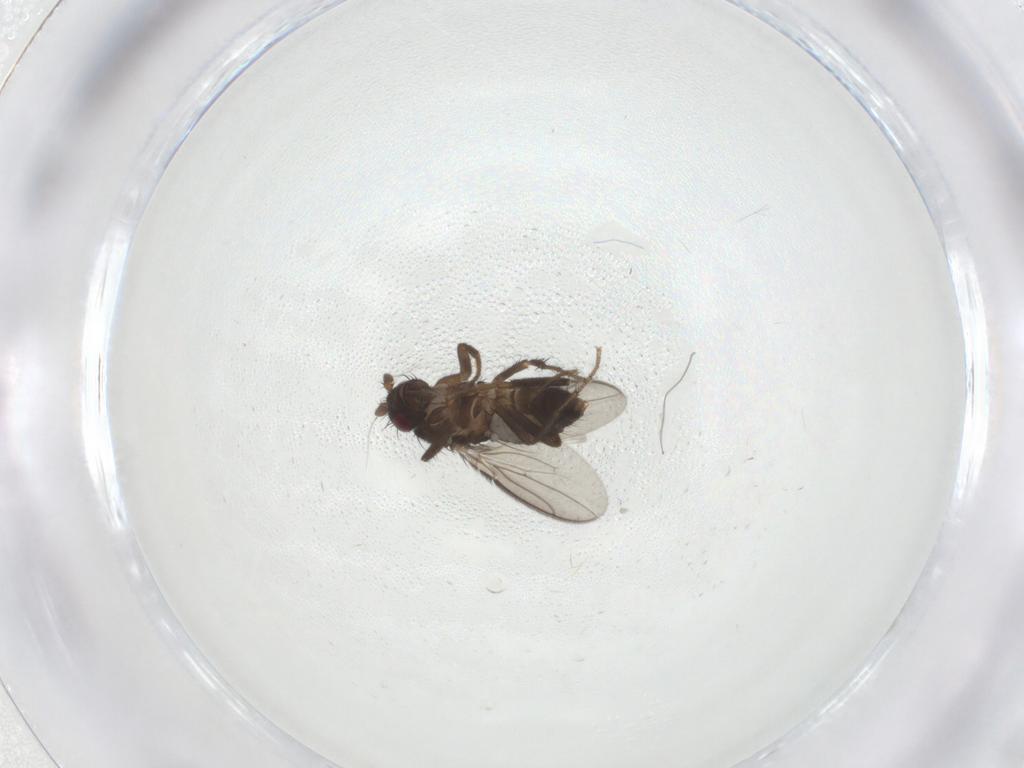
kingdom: Animalia
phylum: Arthropoda
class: Insecta
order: Diptera
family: Sphaeroceridae
